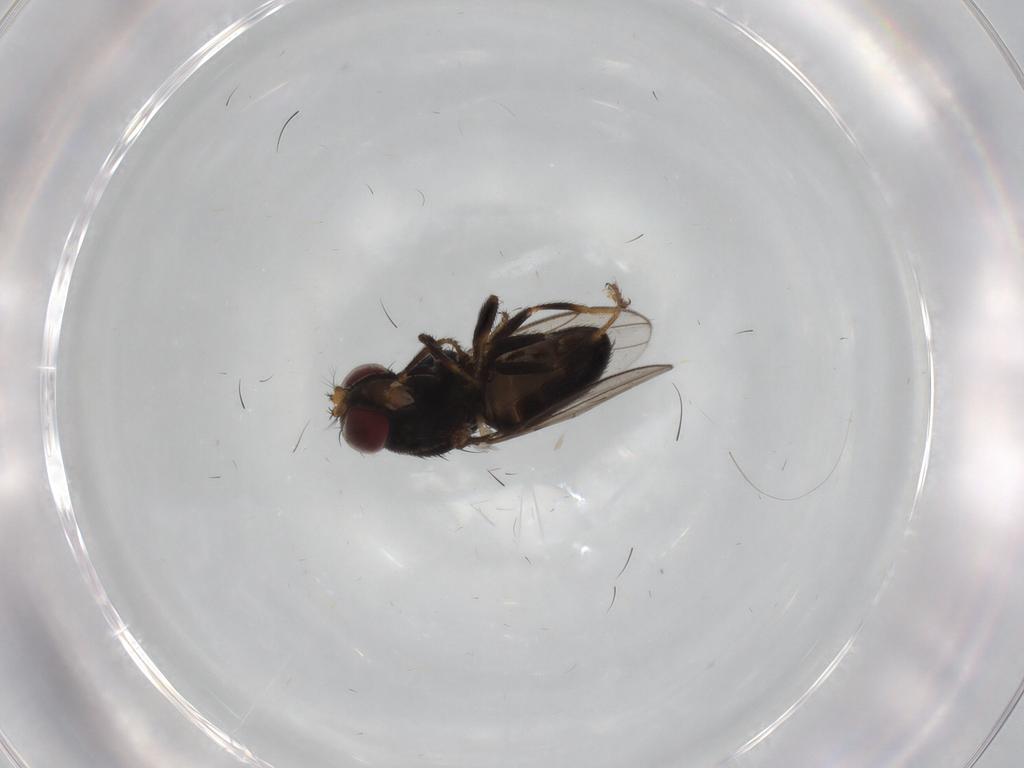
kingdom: Animalia
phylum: Arthropoda
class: Insecta
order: Diptera
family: Dolichopodidae
